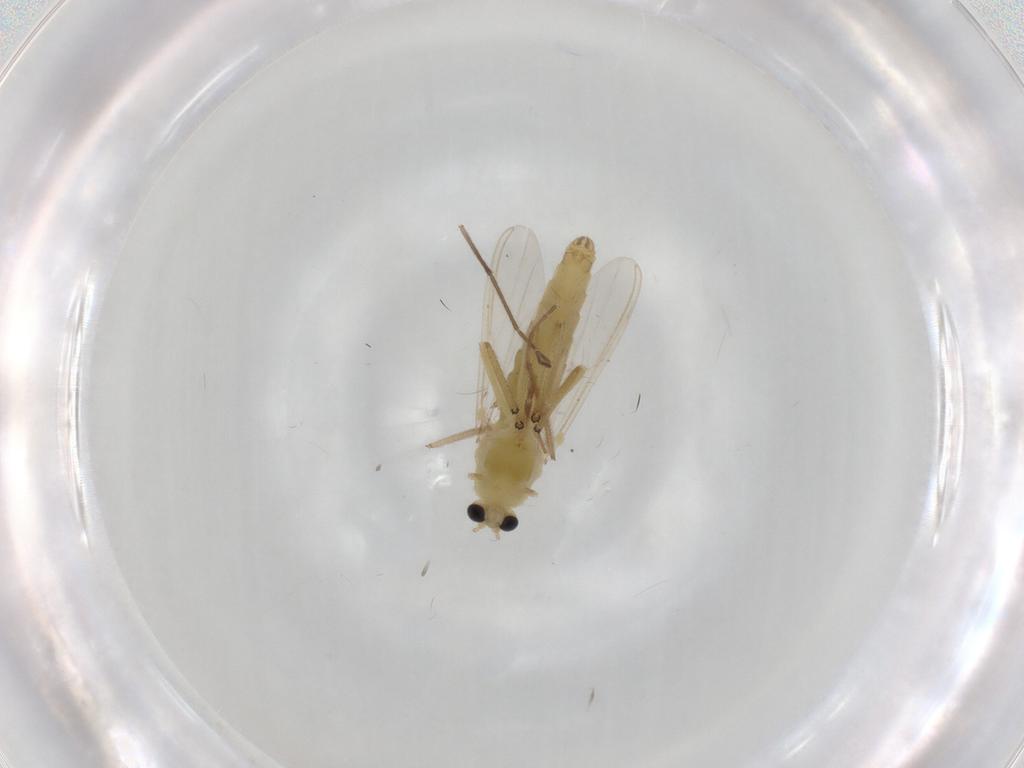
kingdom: Animalia
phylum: Arthropoda
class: Insecta
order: Diptera
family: Chironomidae
